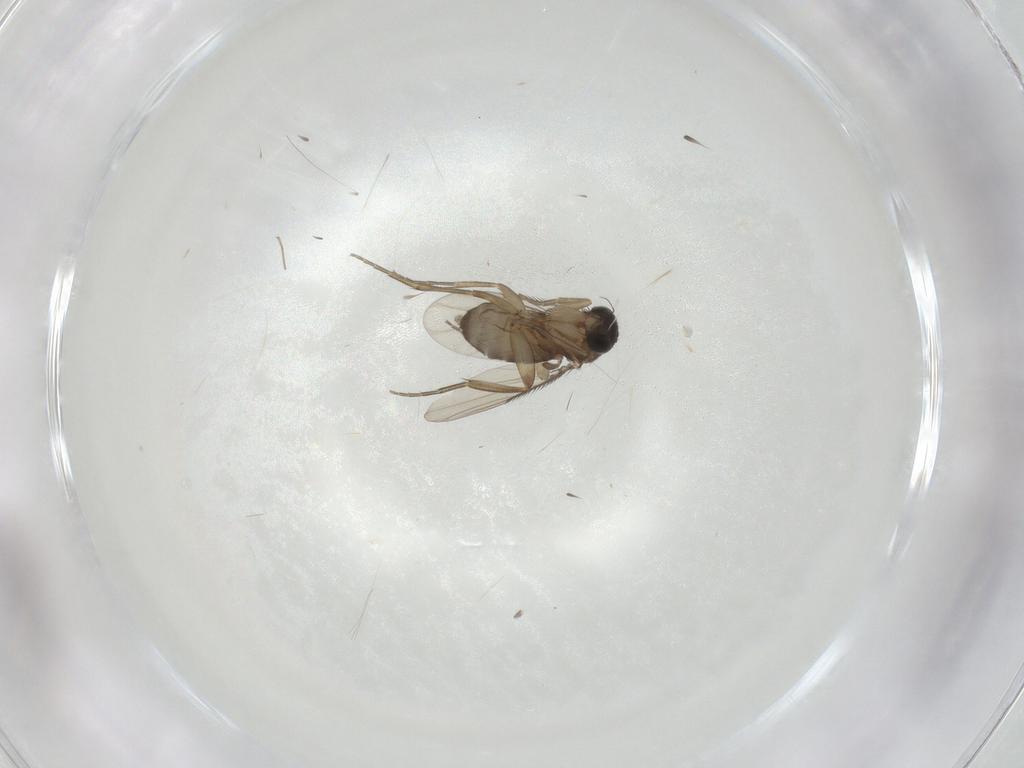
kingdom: Animalia
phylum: Arthropoda
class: Insecta
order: Diptera
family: Phoridae
